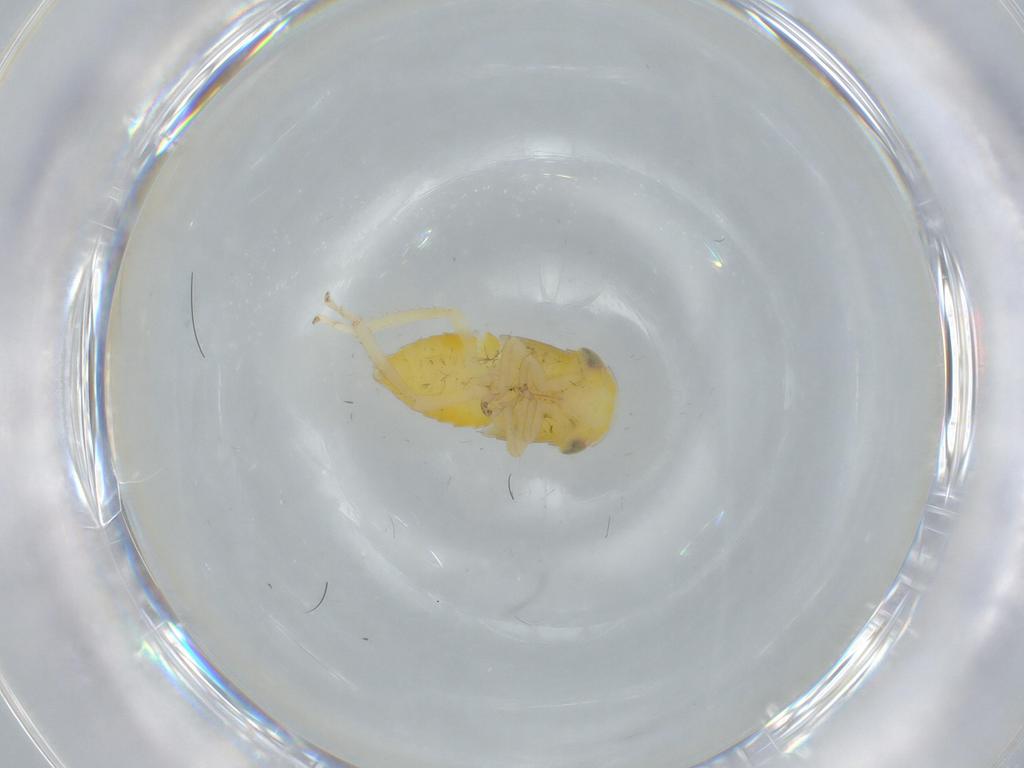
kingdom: Animalia
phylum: Arthropoda
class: Insecta
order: Hemiptera
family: Cicadellidae
